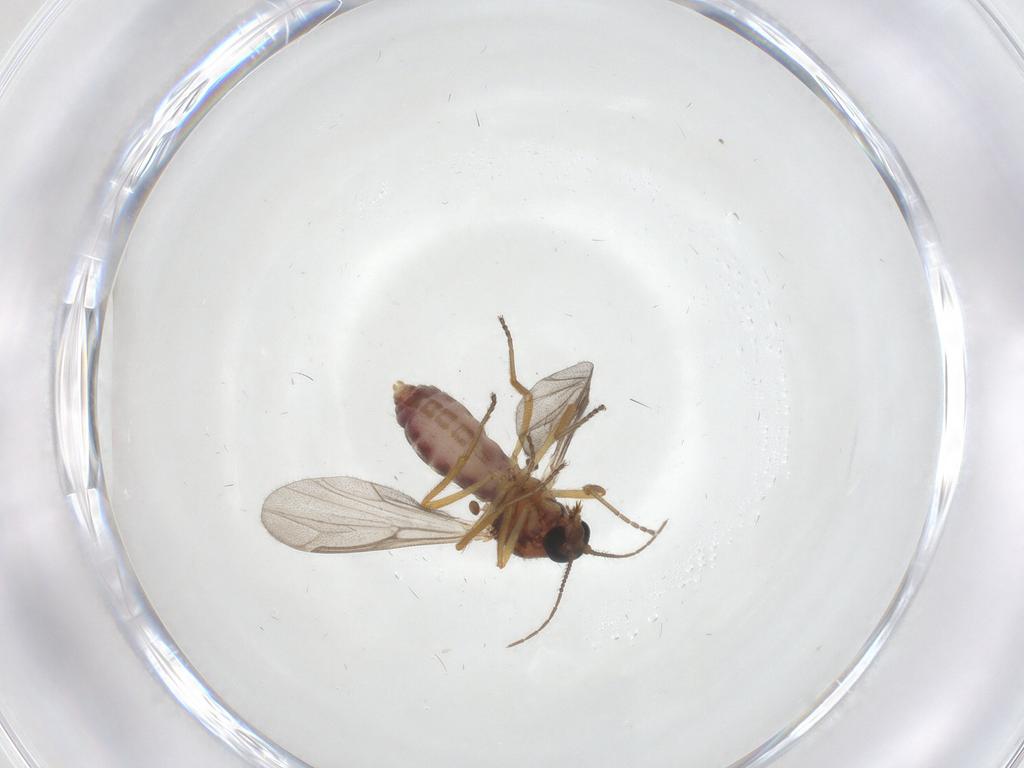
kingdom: Animalia
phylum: Arthropoda
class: Insecta
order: Diptera
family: Ceratopogonidae
